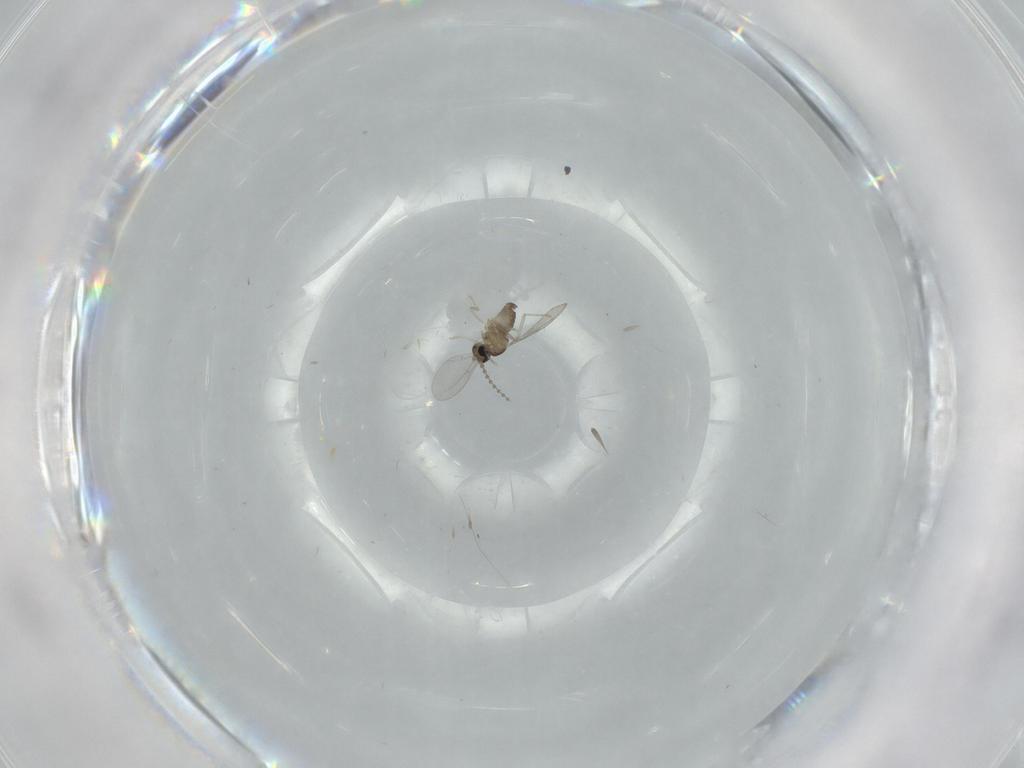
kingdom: Animalia
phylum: Arthropoda
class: Insecta
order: Diptera
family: Cecidomyiidae
